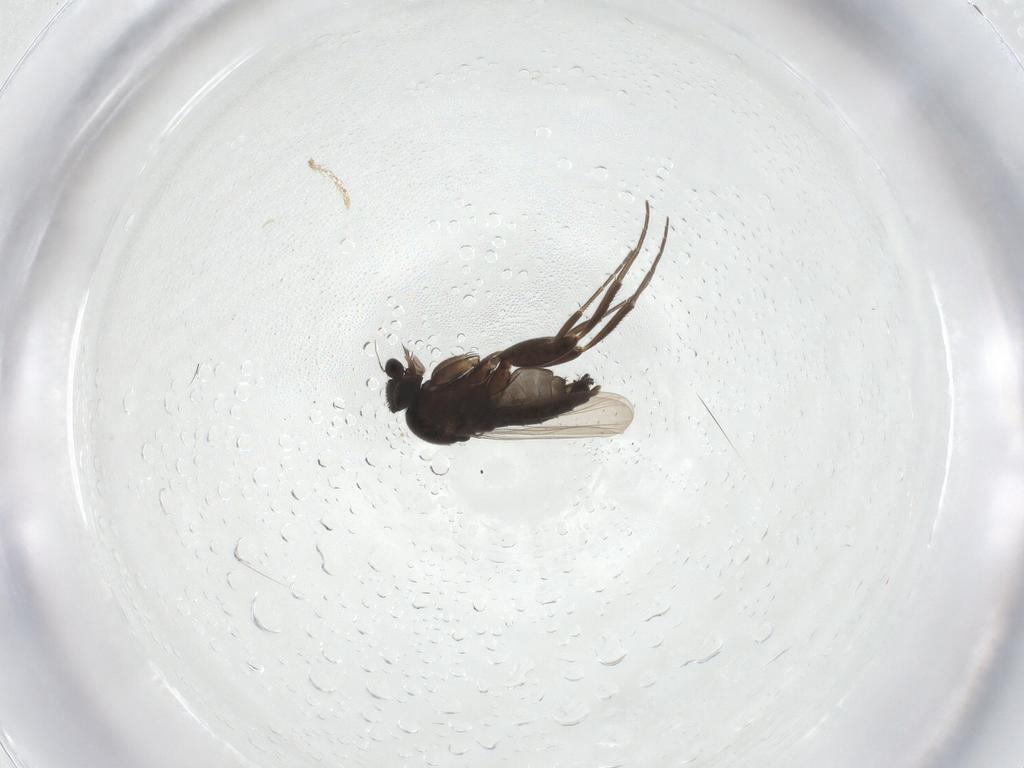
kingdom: Animalia
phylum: Arthropoda
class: Insecta
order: Diptera
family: Phoridae
